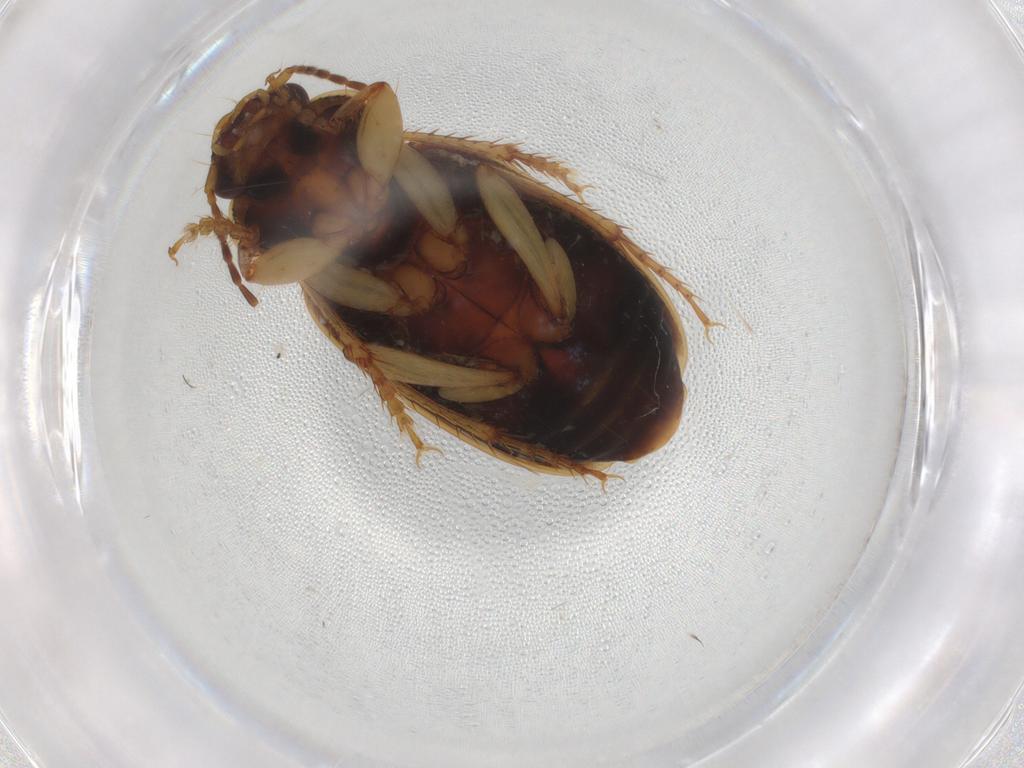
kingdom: Animalia
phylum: Arthropoda
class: Insecta
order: Coleoptera
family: Carabidae
